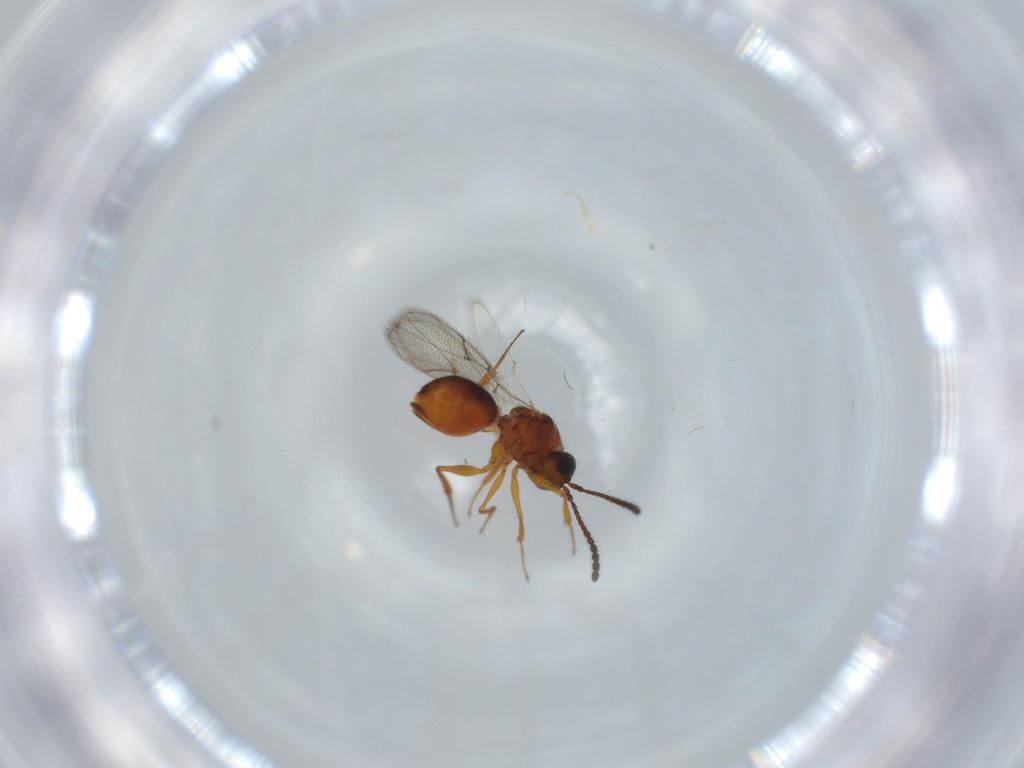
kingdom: Animalia
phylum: Arthropoda
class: Insecta
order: Hymenoptera
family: Figitidae
